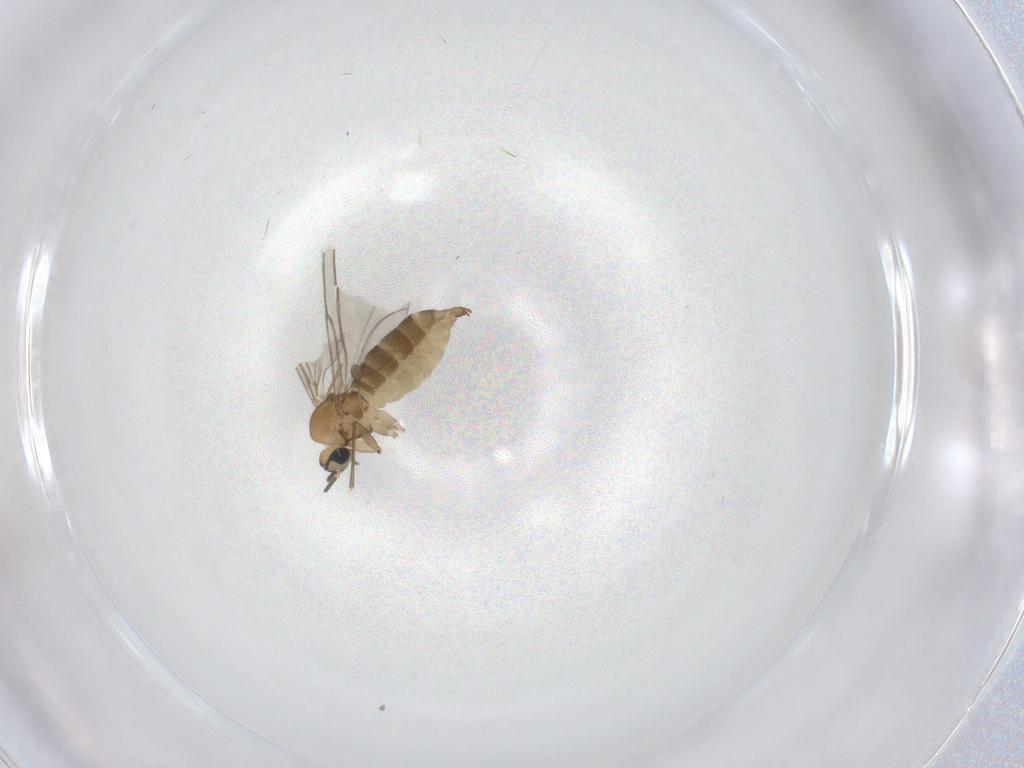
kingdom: Animalia
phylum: Arthropoda
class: Insecta
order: Diptera
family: Sciaridae
